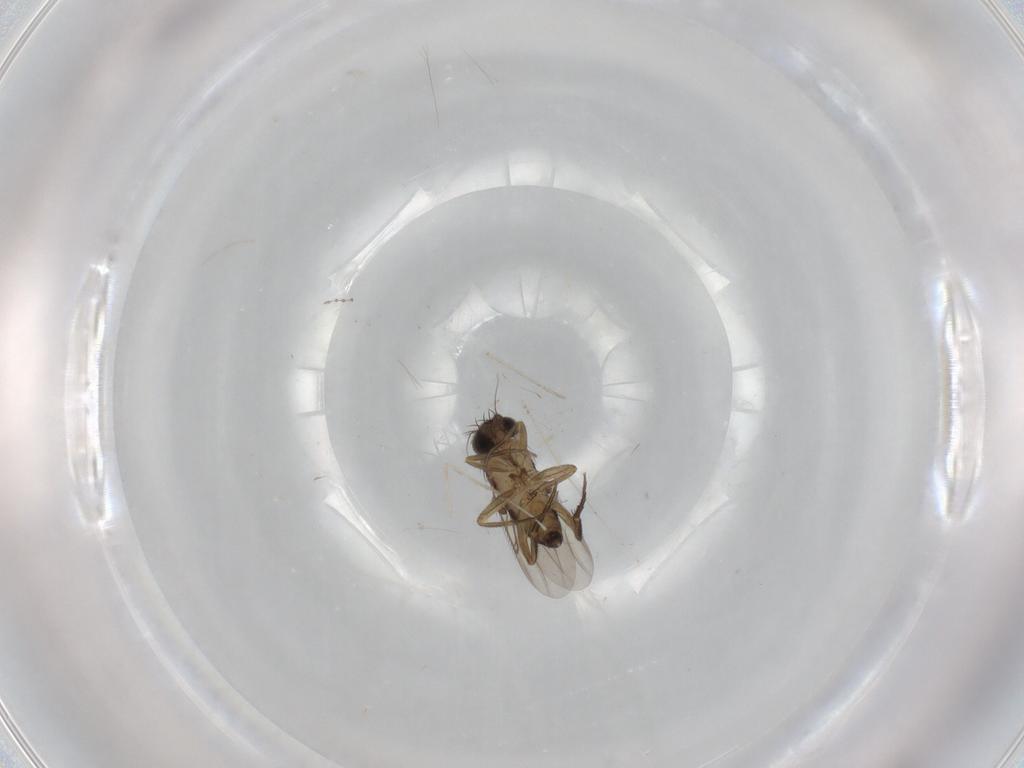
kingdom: Animalia
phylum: Arthropoda
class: Insecta
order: Diptera
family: Phoridae
